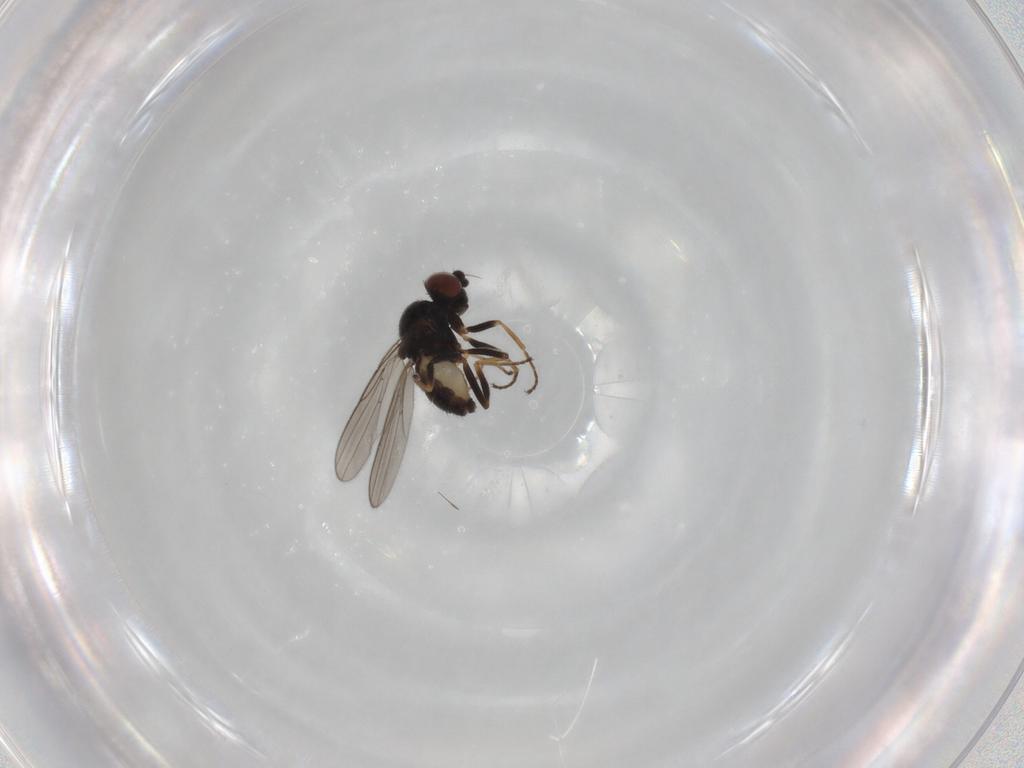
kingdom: Animalia
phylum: Arthropoda
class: Insecta
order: Diptera
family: Chloropidae
